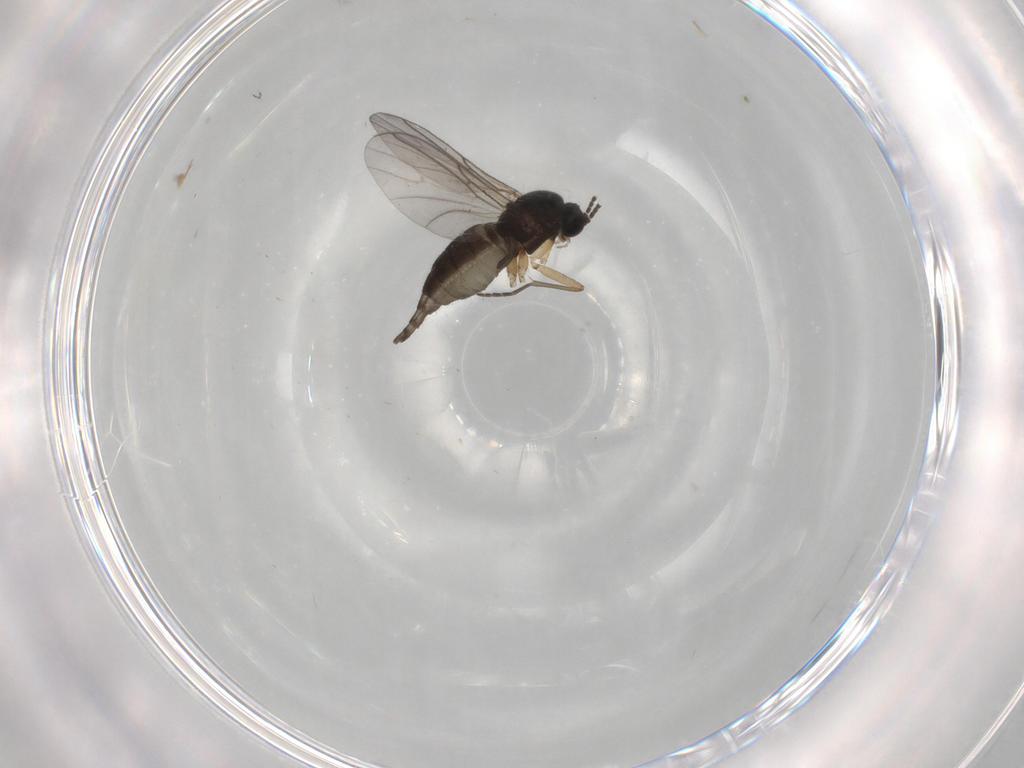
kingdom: Animalia
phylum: Arthropoda
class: Insecta
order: Diptera
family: Sciaridae
